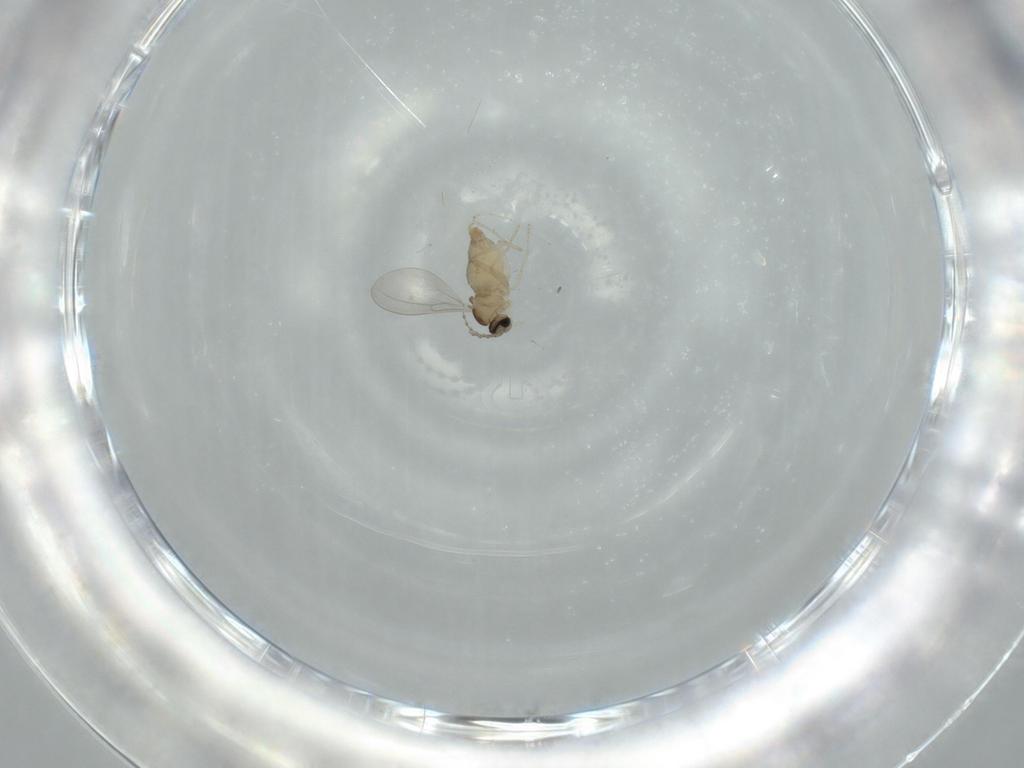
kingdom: Animalia
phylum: Arthropoda
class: Insecta
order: Diptera
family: Cecidomyiidae
